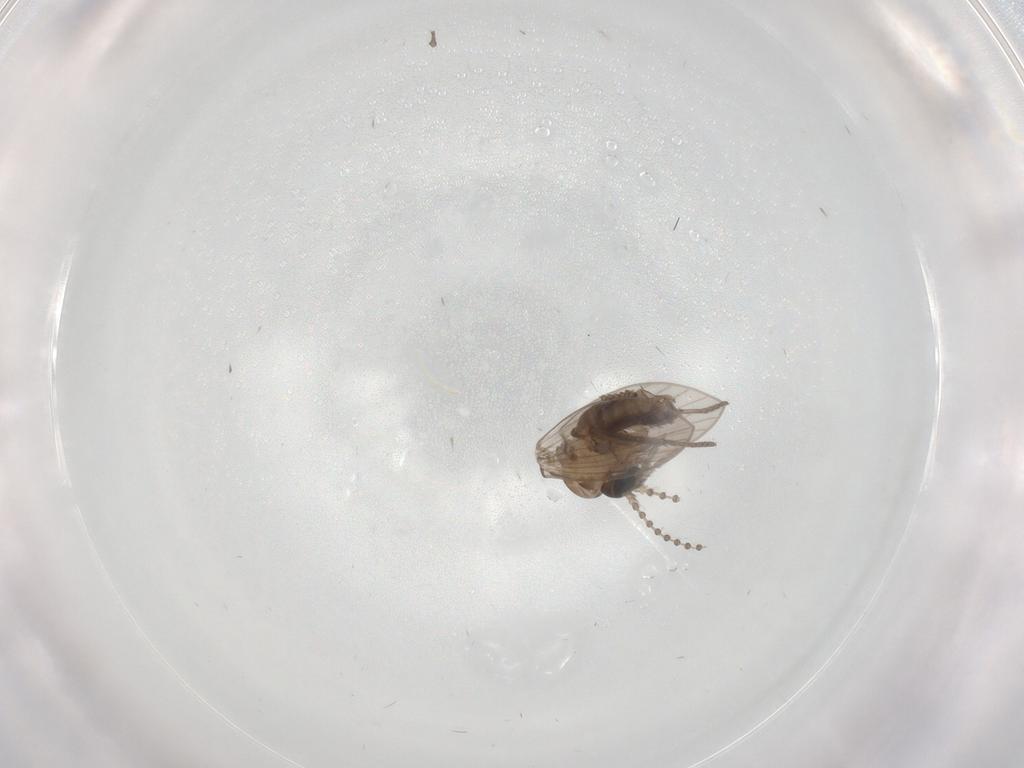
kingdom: Animalia
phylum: Arthropoda
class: Insecta
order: Diptera
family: Psychodidae
